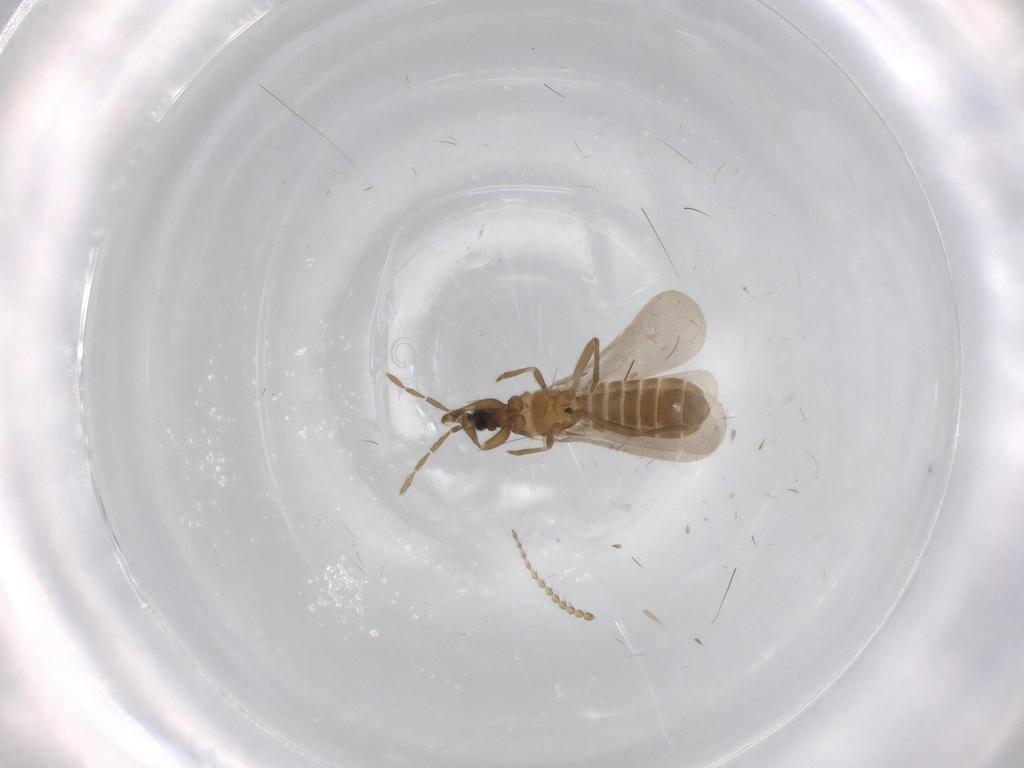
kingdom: Animalia
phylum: Arthropoda
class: Insecta
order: Hemiptera
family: Enicocephalidae
